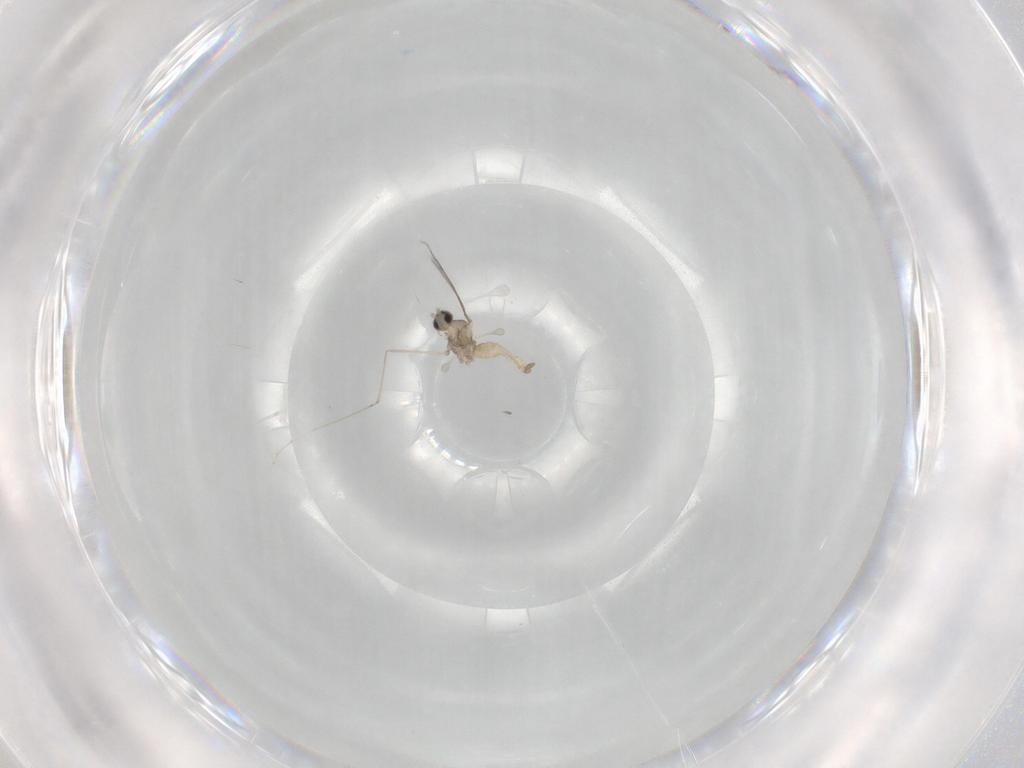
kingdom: Animalia
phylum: Arthropoda
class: Insecta
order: Diptera
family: Cecidomyiidae
